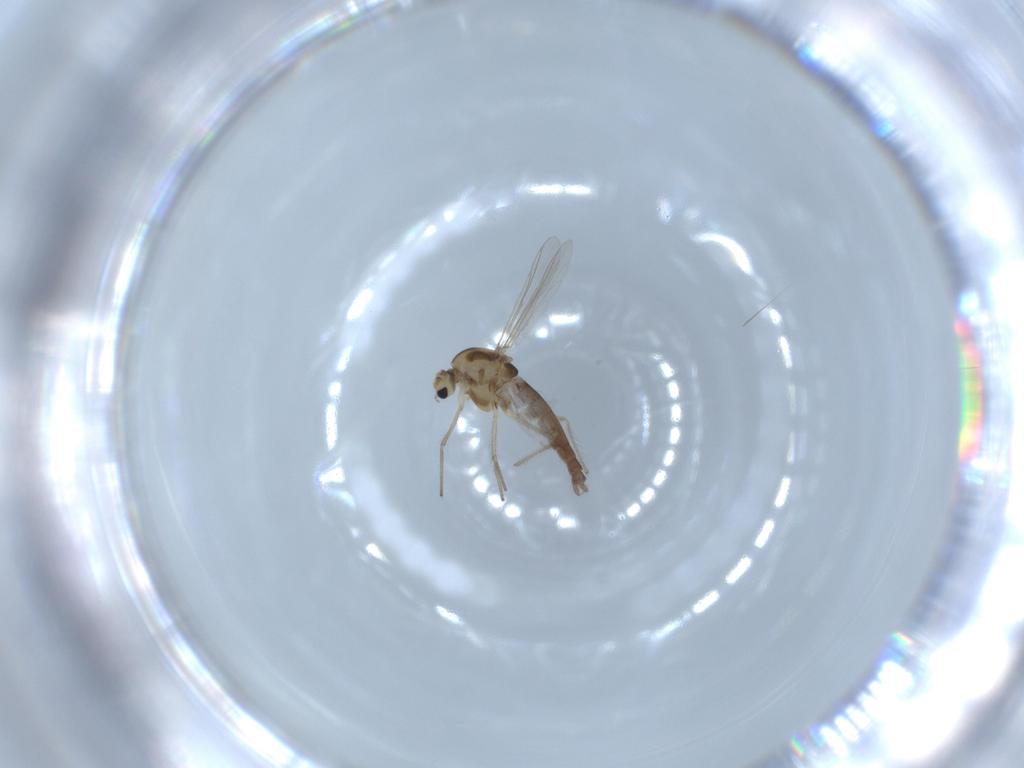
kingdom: Animalia
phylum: Arthropoda
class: Insecta
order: Diptera
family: Chironomidae
